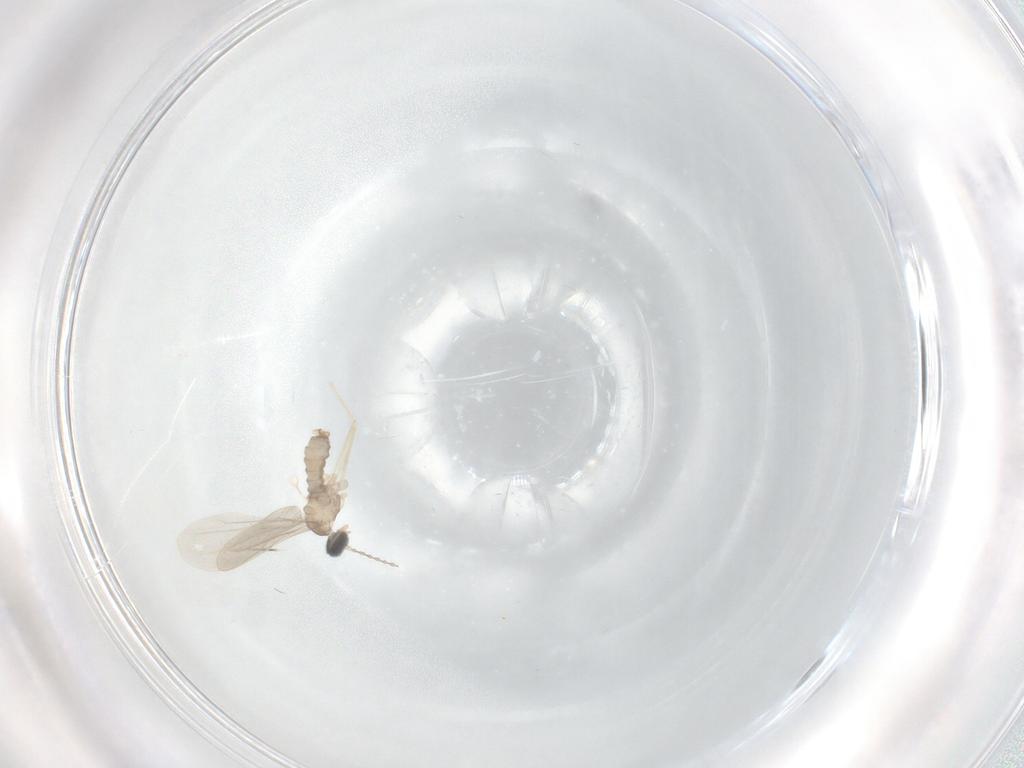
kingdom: Animalia
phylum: Arthropoda
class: Insecta
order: Diptera
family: Cecidomyiidae
